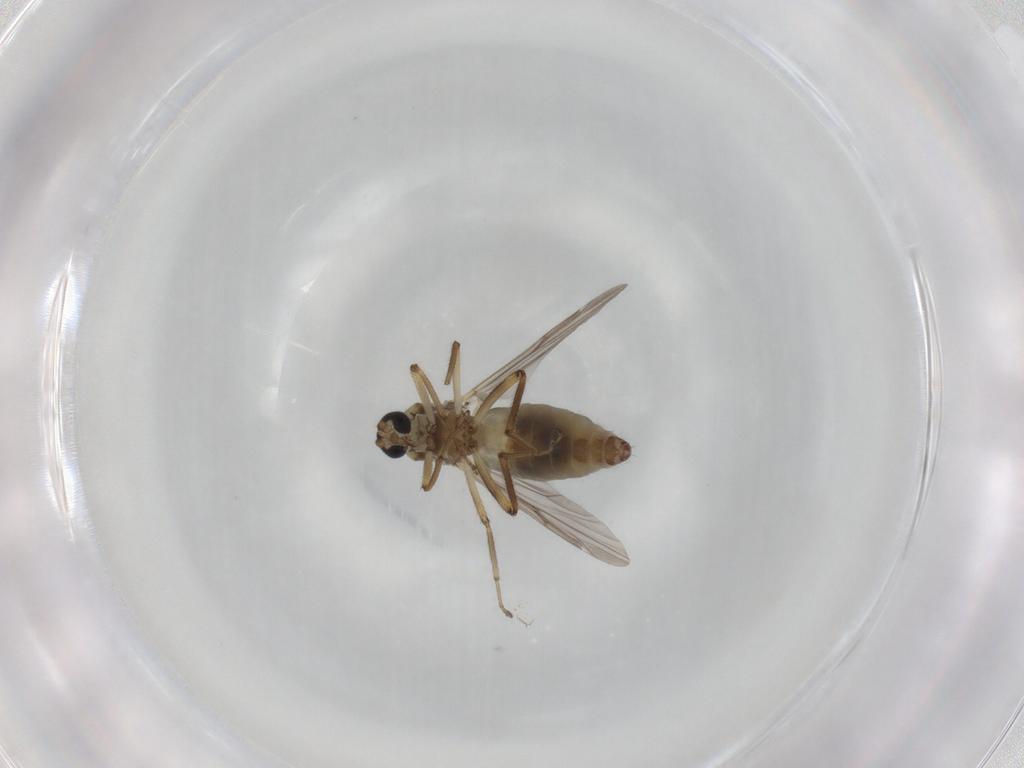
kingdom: Animalia
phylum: Arthropoda
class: Insecta
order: Diptera
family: Ceratopogonidae
